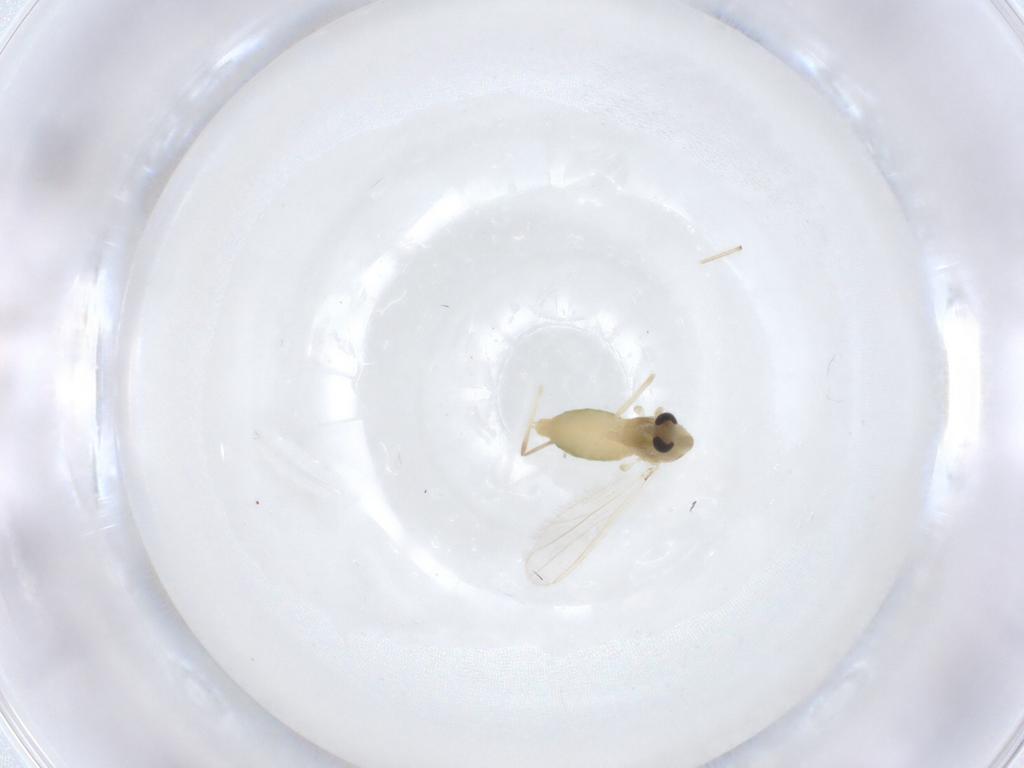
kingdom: Animalia
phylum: Arthropoda
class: Insecta
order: Diptera
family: Chironomidae
